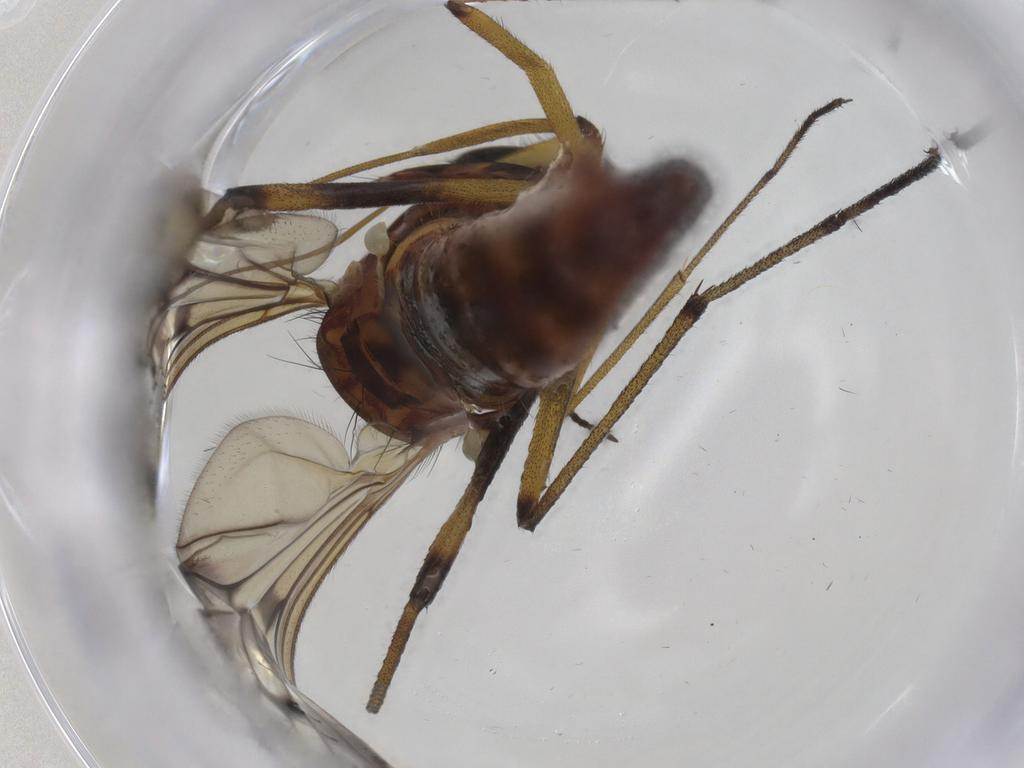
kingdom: Animalia
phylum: Arthropoda
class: Insecta
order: Diptera
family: Anisopodidae
